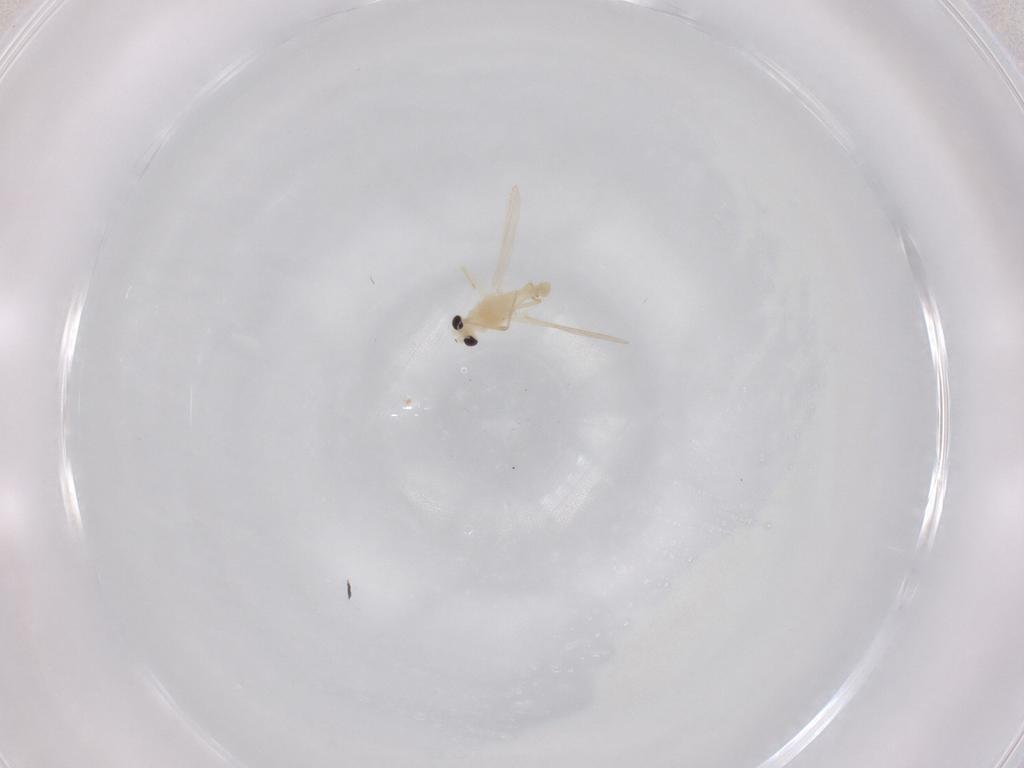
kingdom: Animalia
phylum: Arthropoda
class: Insecta
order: Diptera
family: Chironomidae
